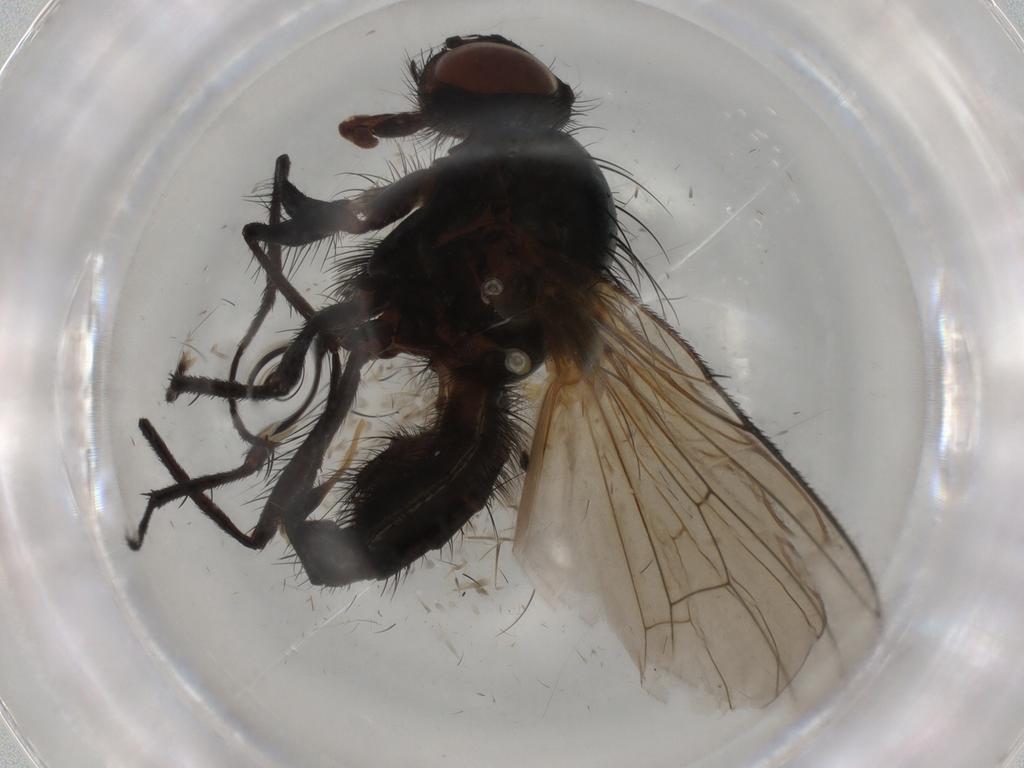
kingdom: Animalia
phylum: Arthropoda
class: Insecta
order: Diptera
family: Anthomyiidae
